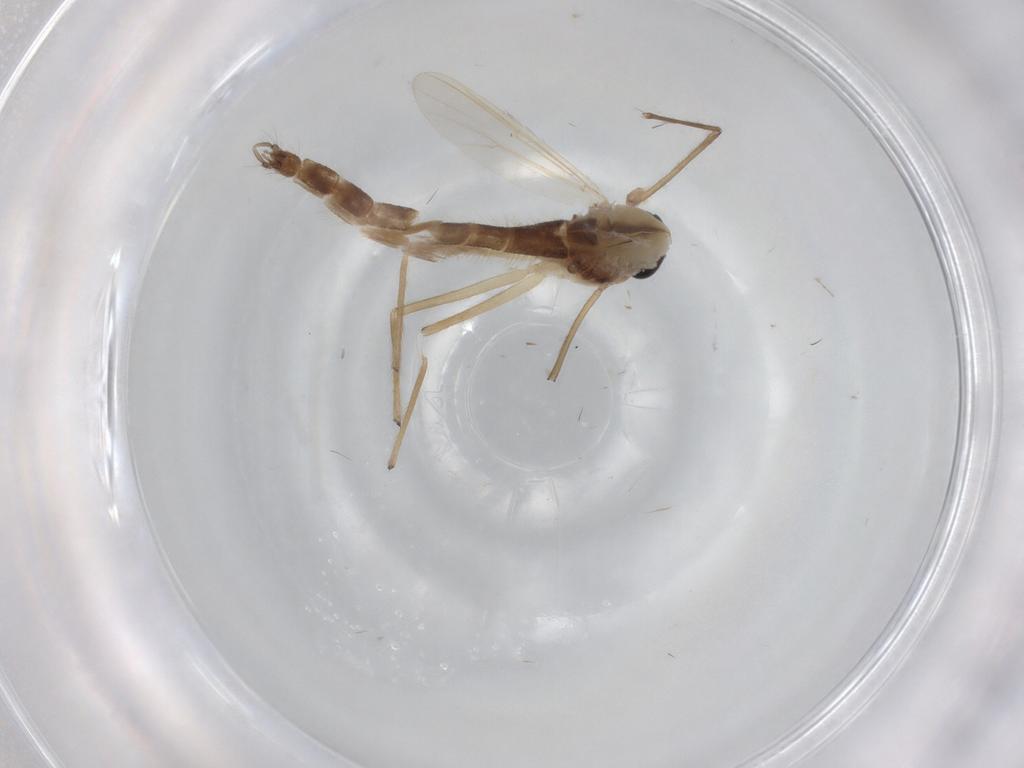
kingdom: Animalia
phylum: Arthropoda
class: Insecta
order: Diptera
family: Chironomidae
